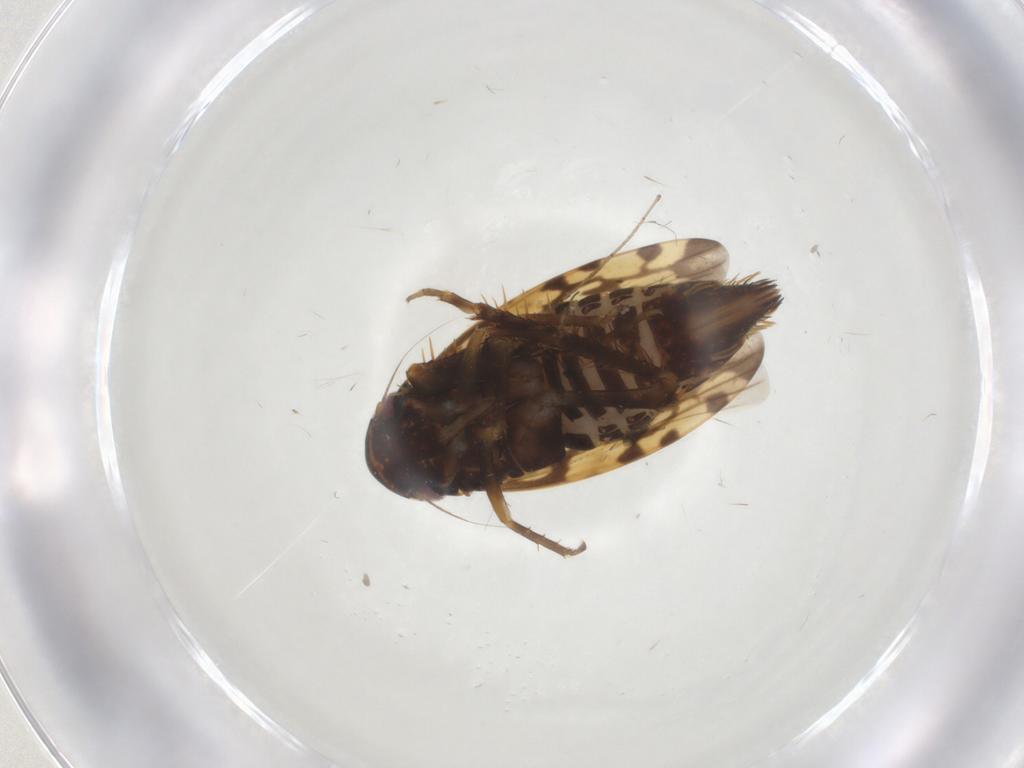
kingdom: Animalia
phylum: Arthropoda
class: Insecta
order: Hemiptera
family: Cicadellidae
